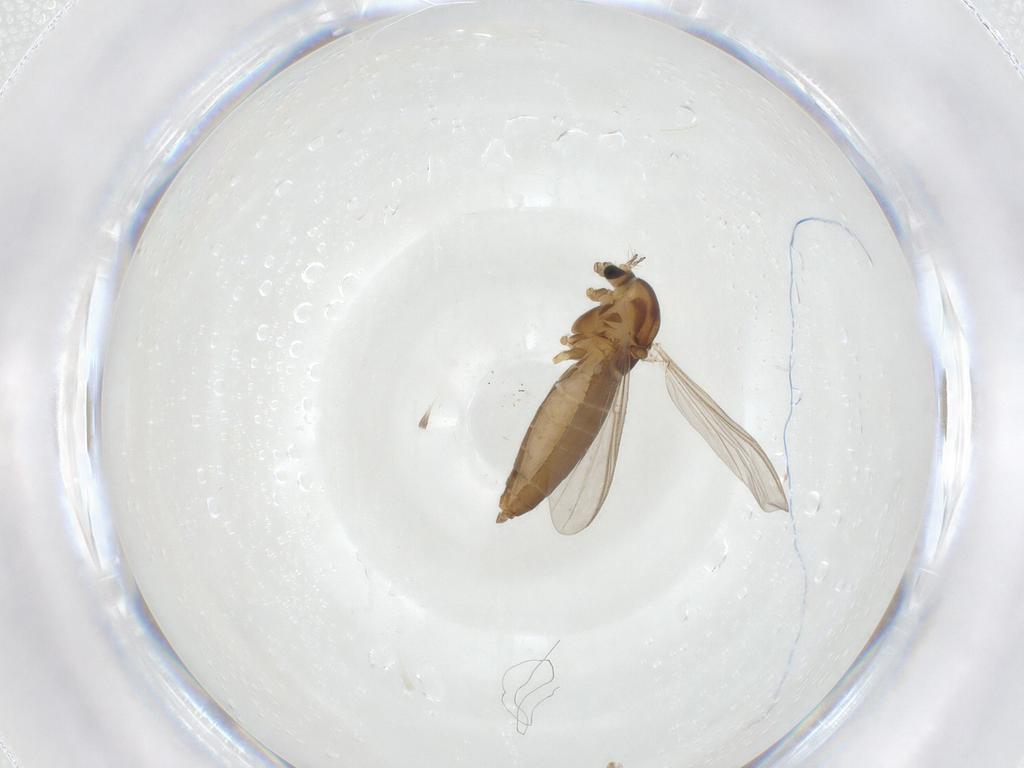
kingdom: Animalia
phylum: Arthropoda
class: Insecta
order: Diptera
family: Chironomidae
